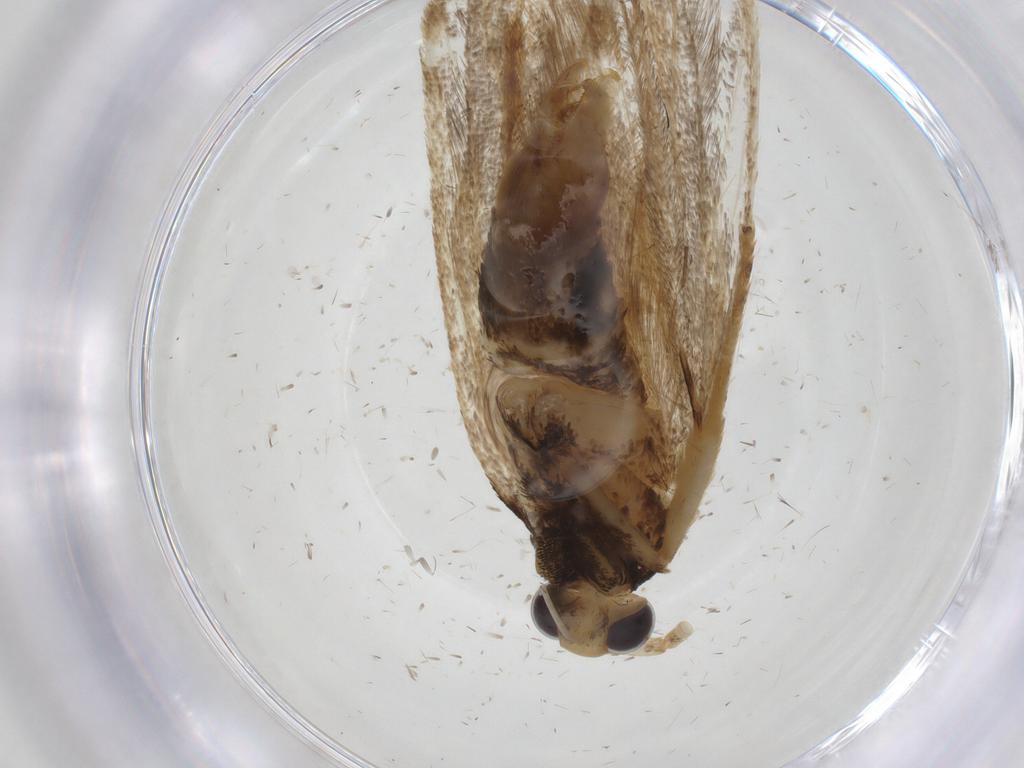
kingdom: Animalia
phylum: Arthropoda
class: Insecta
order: Lepidoptera
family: Lecithoceridae
